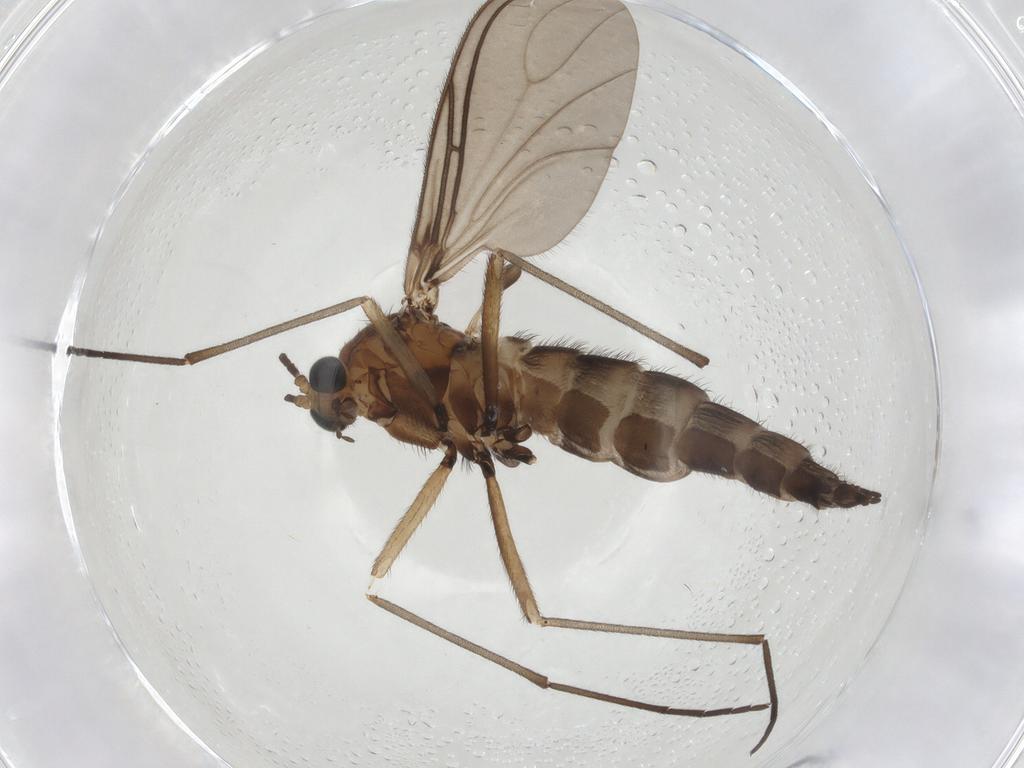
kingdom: Animalia
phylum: Arthropoda
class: Insecta
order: Diptera
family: Sciaridae
